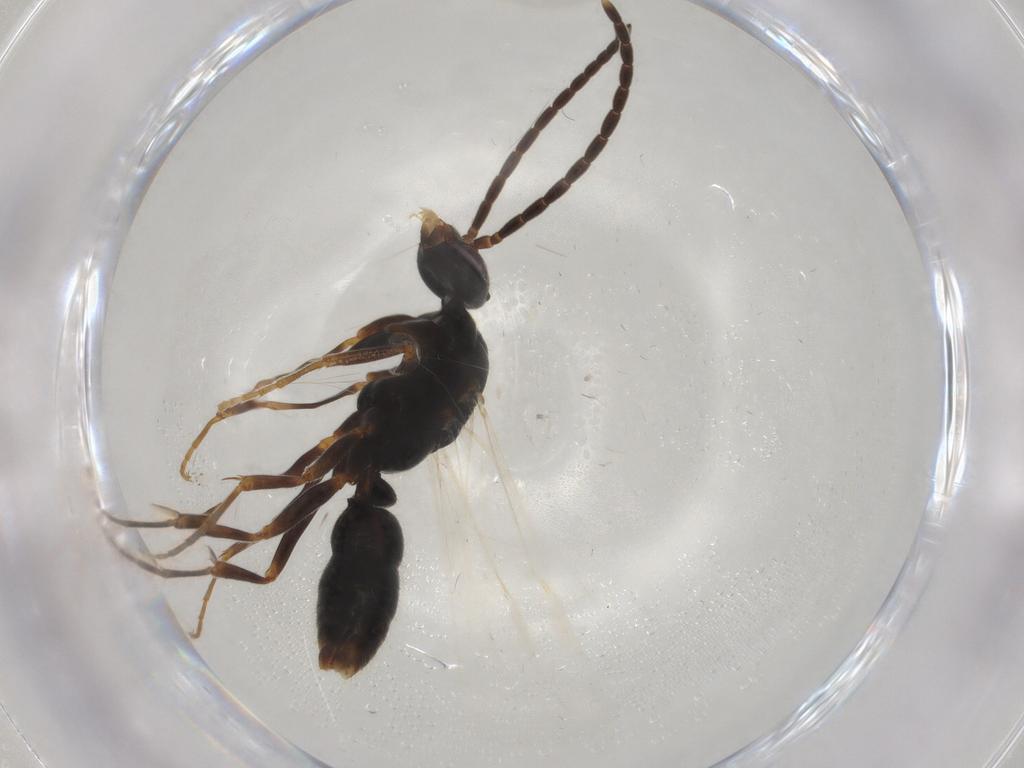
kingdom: Animalia
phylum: Arthropoda
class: Insecta
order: Hymenoptera
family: Formicidae
